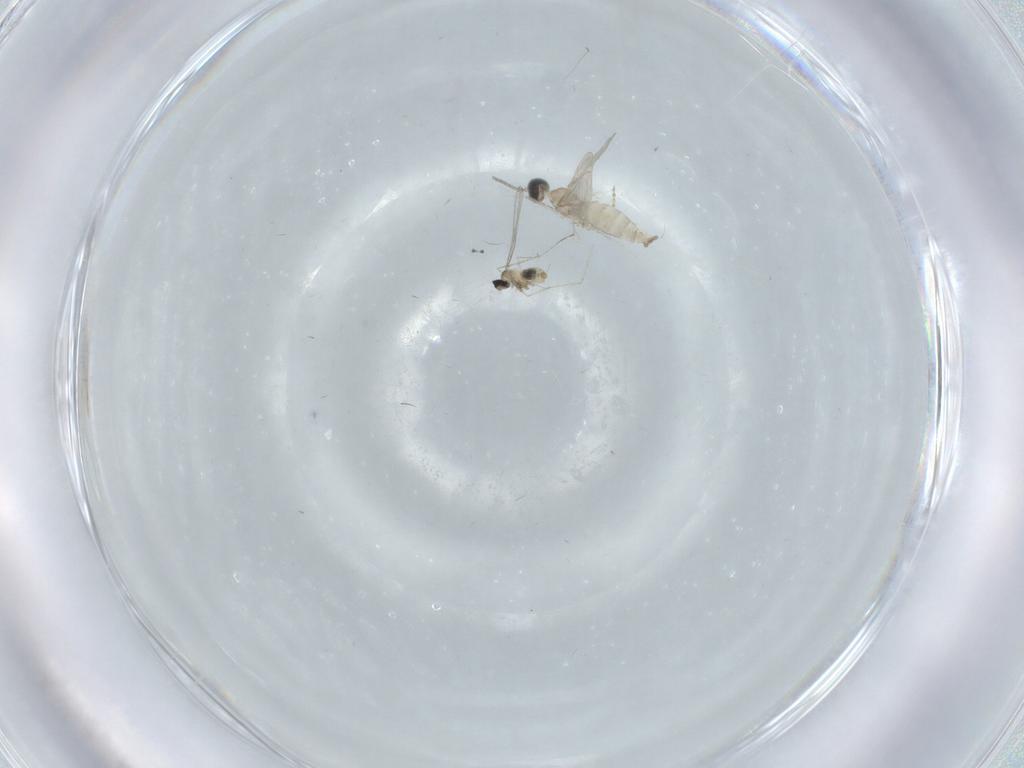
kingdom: Animalia
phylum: Arthropoda
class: Insecta
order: Diptera
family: Cecidomyiidae
